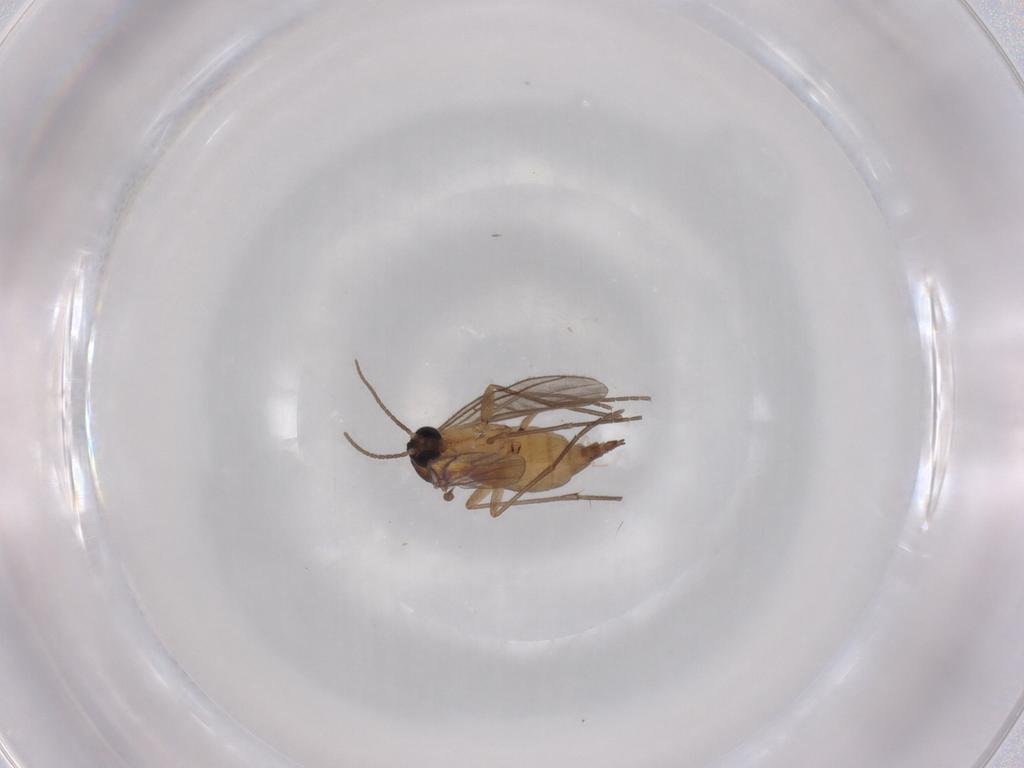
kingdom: Animalia
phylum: Arthropoda
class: Insecta
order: Diptera
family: Sciaridae
